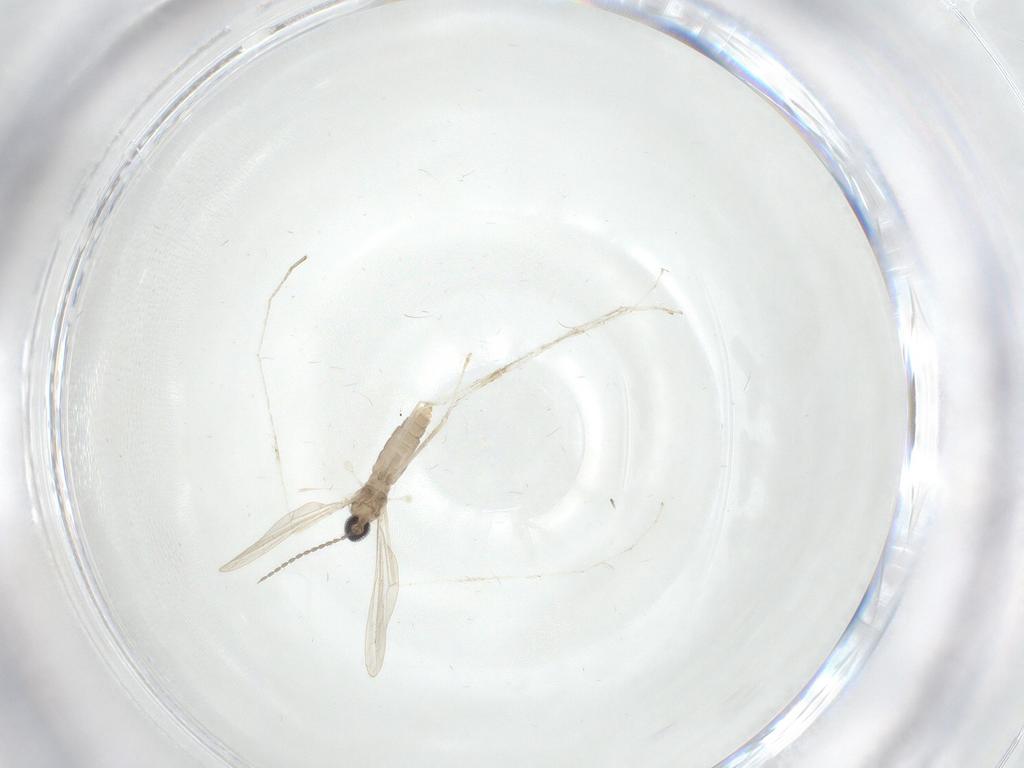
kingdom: Animalia
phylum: Arthropoda
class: Insecta
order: Diptera
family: Cecidomyiidae
